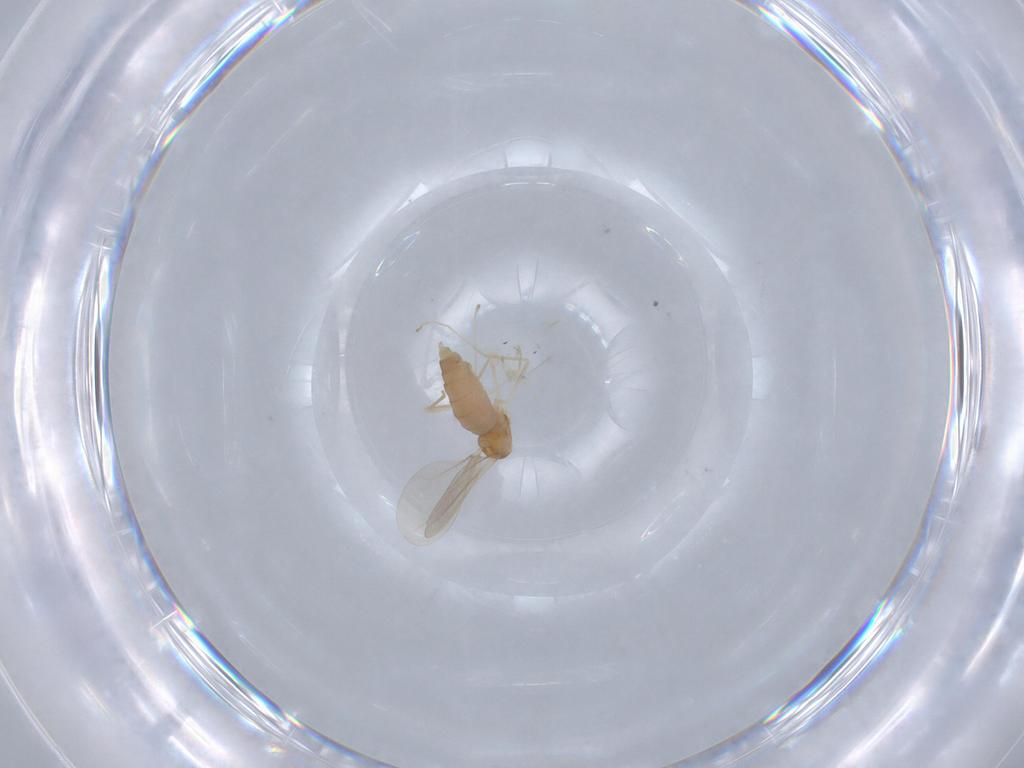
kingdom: Animalia
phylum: Arthropoda
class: Insecta
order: Diptera
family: Cecidomyiidae
